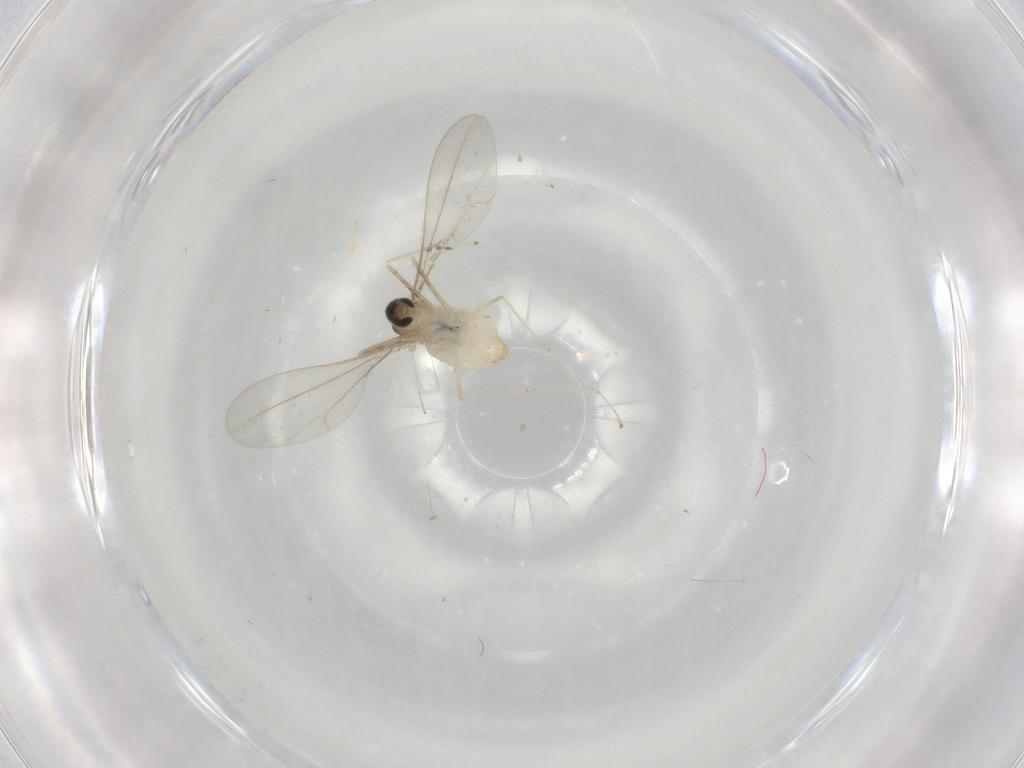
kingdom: Animalia
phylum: Arthropoda
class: Insecta
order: Diptera
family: Cecidomyiidae
